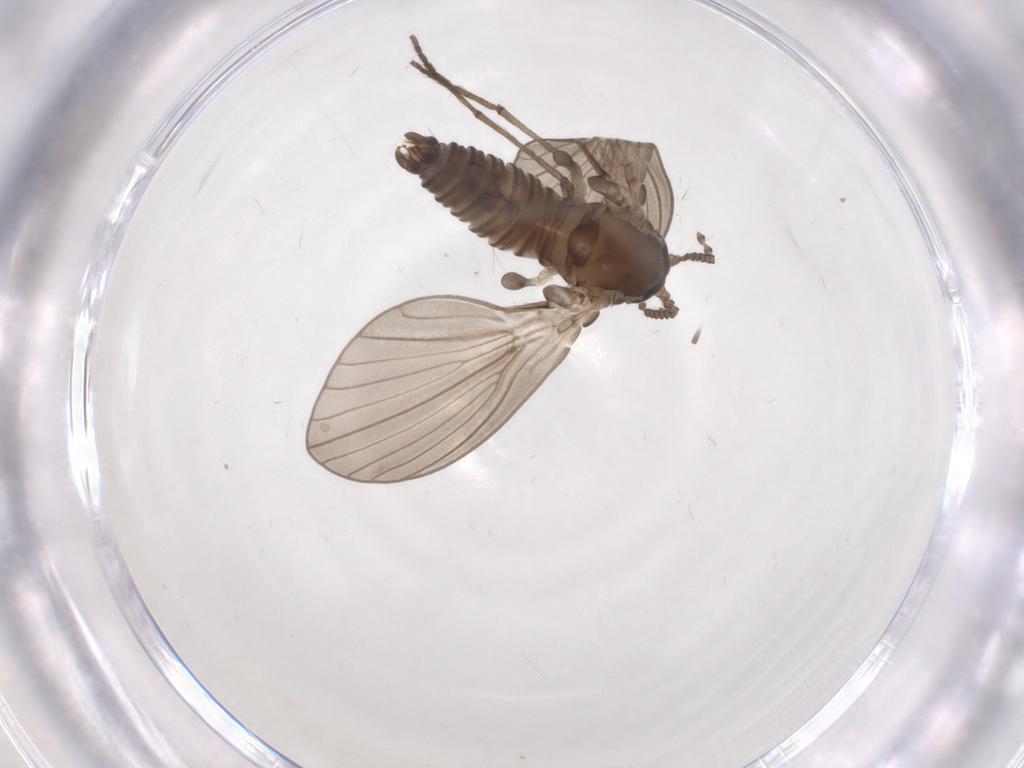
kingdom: Animalia
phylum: Arthropoda
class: Insecta
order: Diptera
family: Psychodidae
